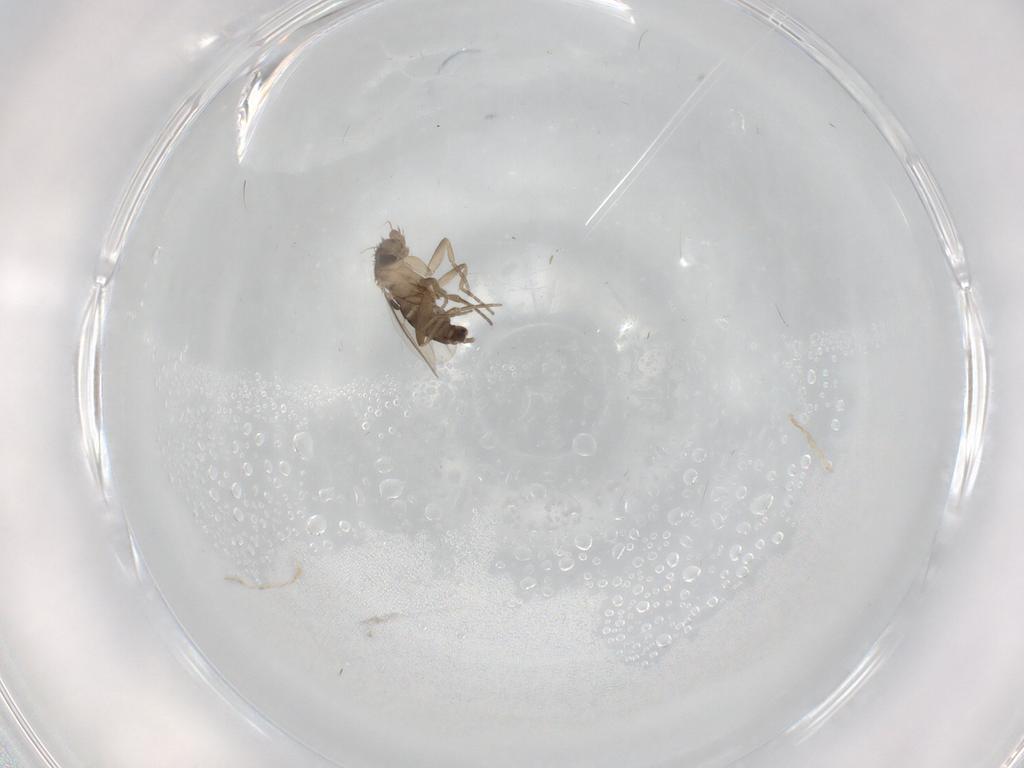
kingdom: Animalia
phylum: Arthropoda
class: Insecta
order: Diptera
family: Phoridae
